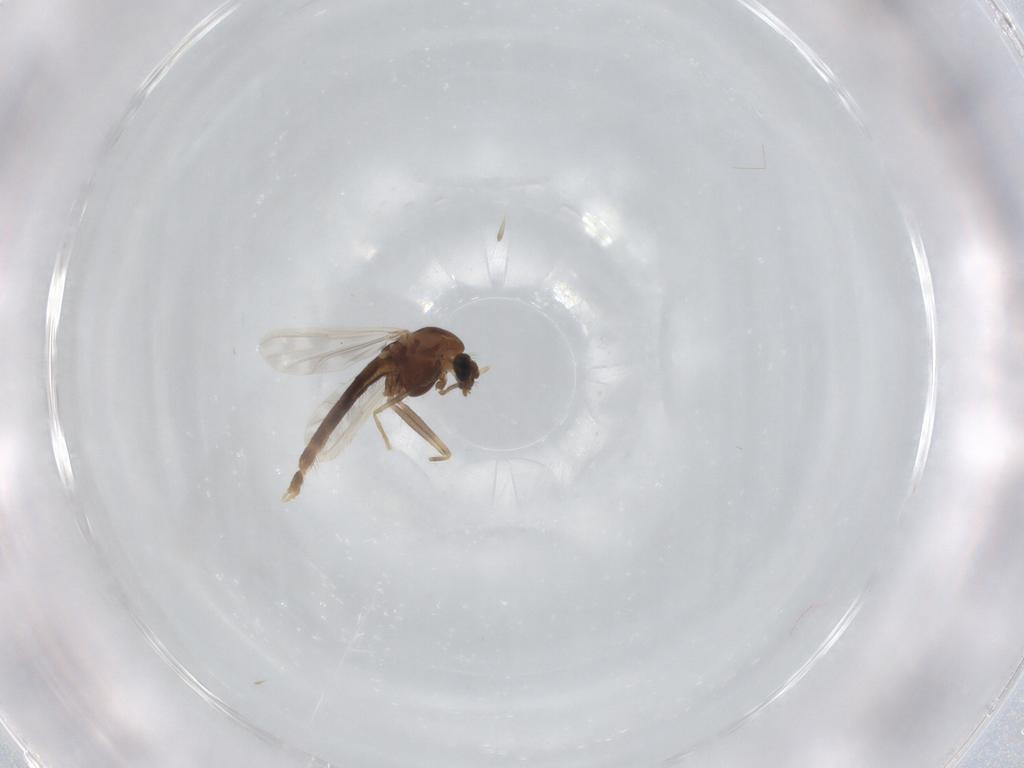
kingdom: Animalia
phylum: Arthropoda
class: Insecta
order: Diptera
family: Chironomidae
